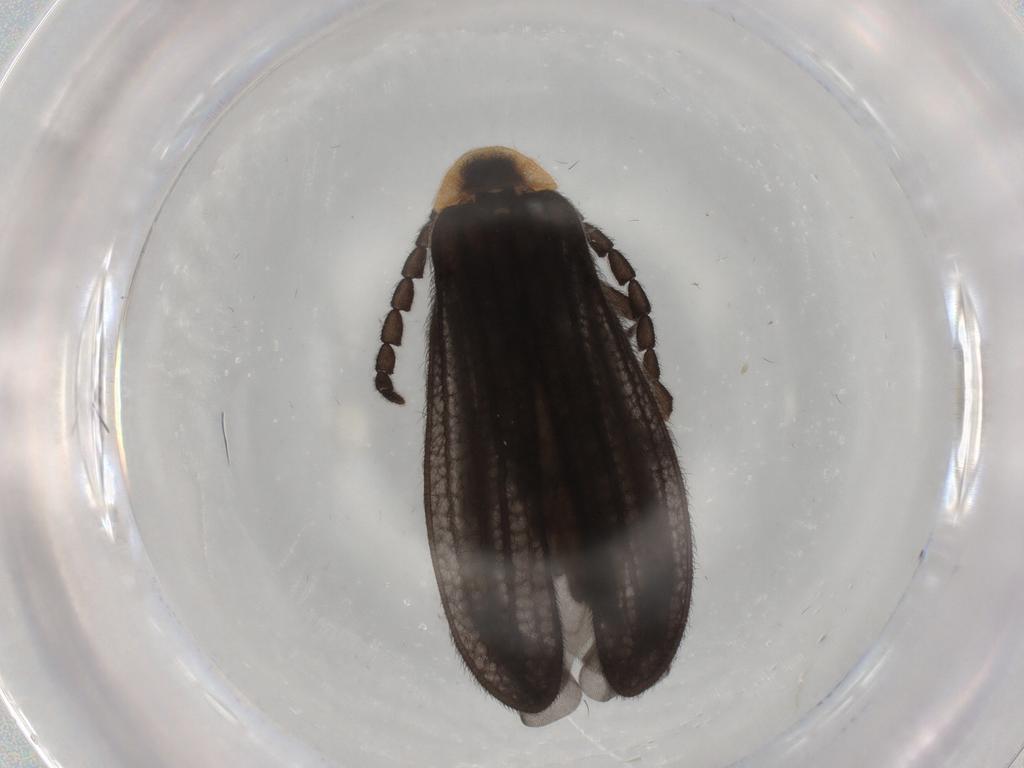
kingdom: Animalia
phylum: Arthropoda
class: Insecta
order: Coleoptera
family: Lycidae
